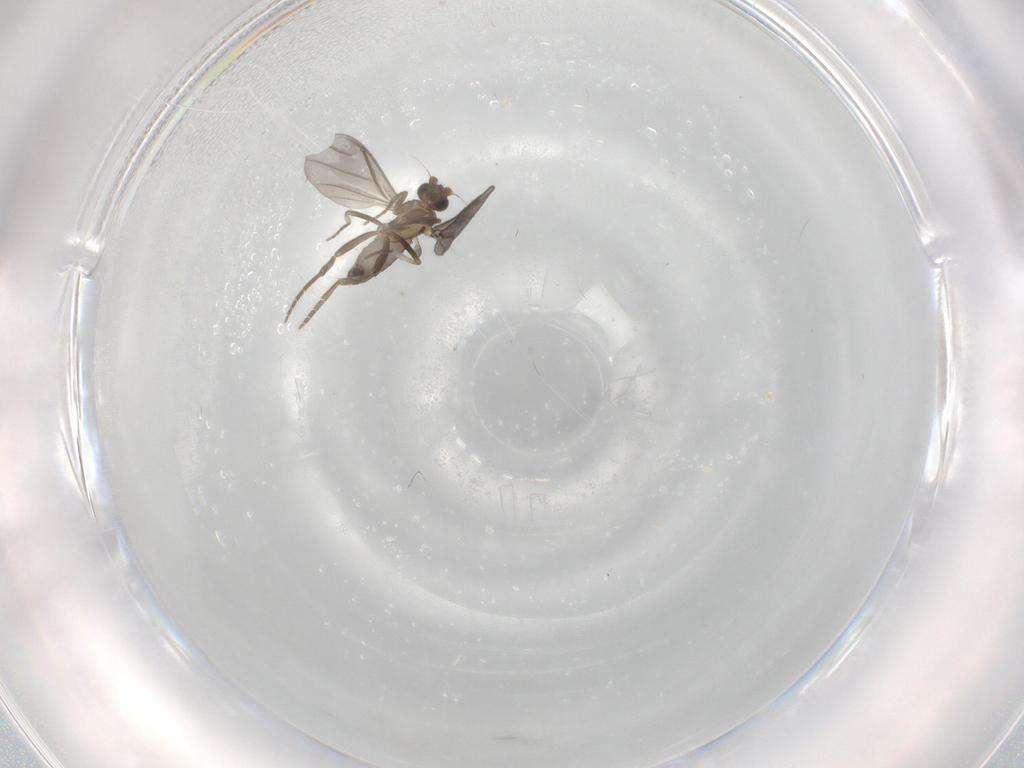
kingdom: Animalia
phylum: Arthropoda
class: Insecta
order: Diptera
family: Phoridae
